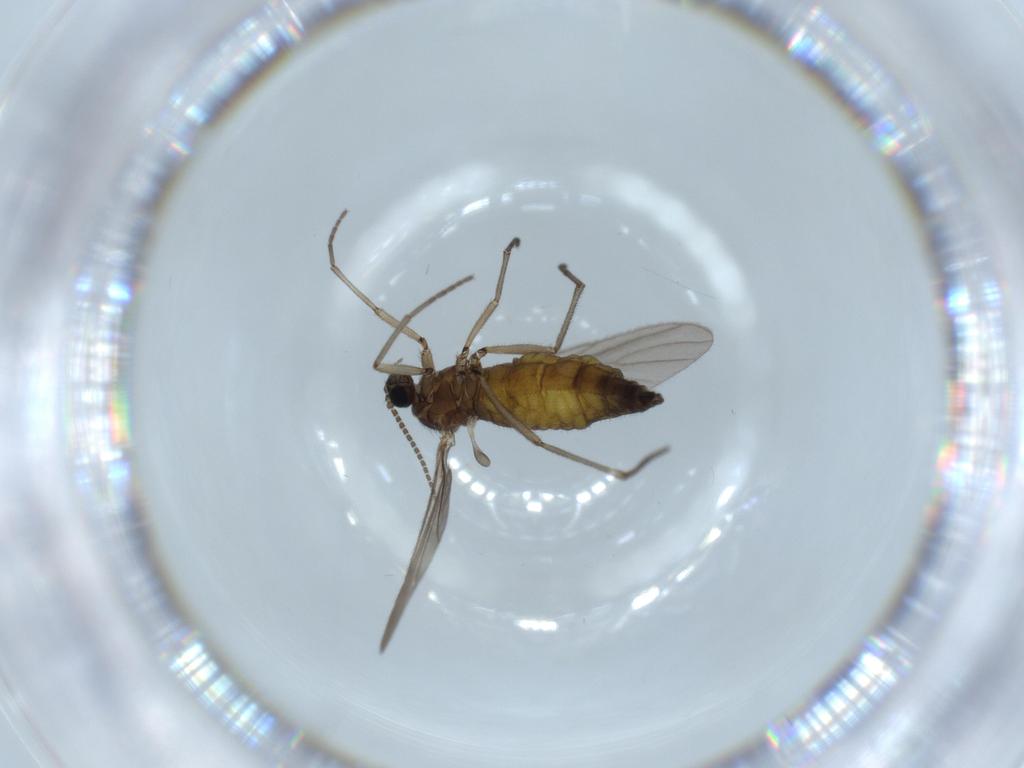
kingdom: Animalia
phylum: Arthropoda
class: Insecta
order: Diptera
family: Sciaridae
